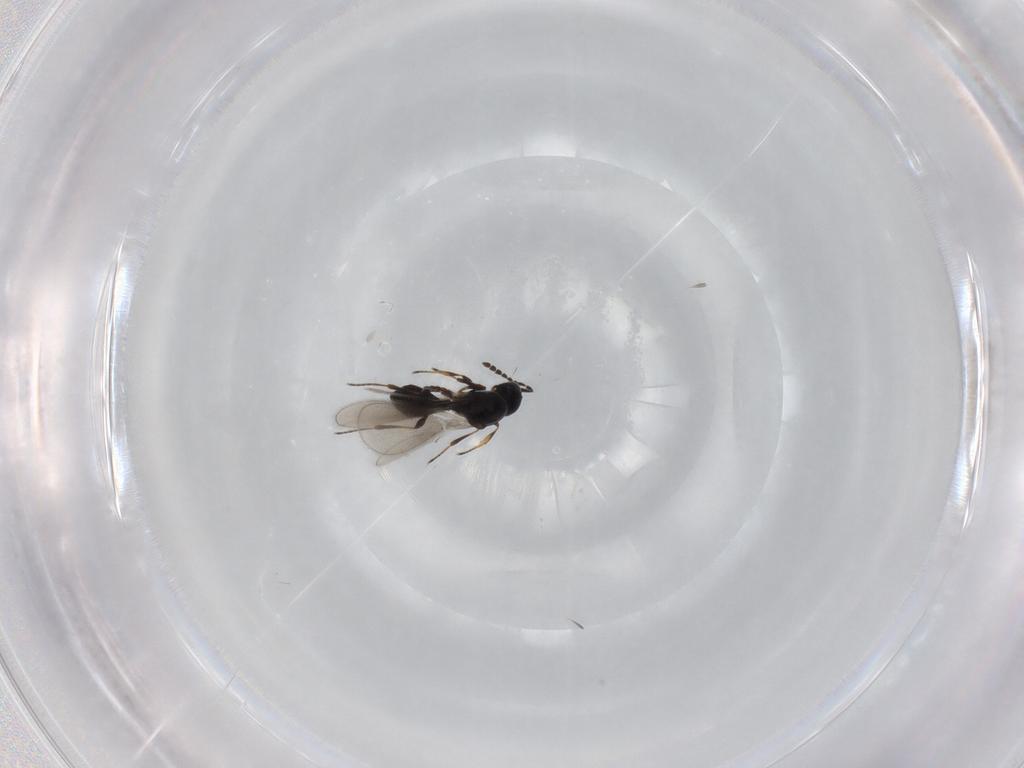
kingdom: Animalia
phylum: Arthropoda
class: Insecta
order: Hymenoptera
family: Platygastridae
